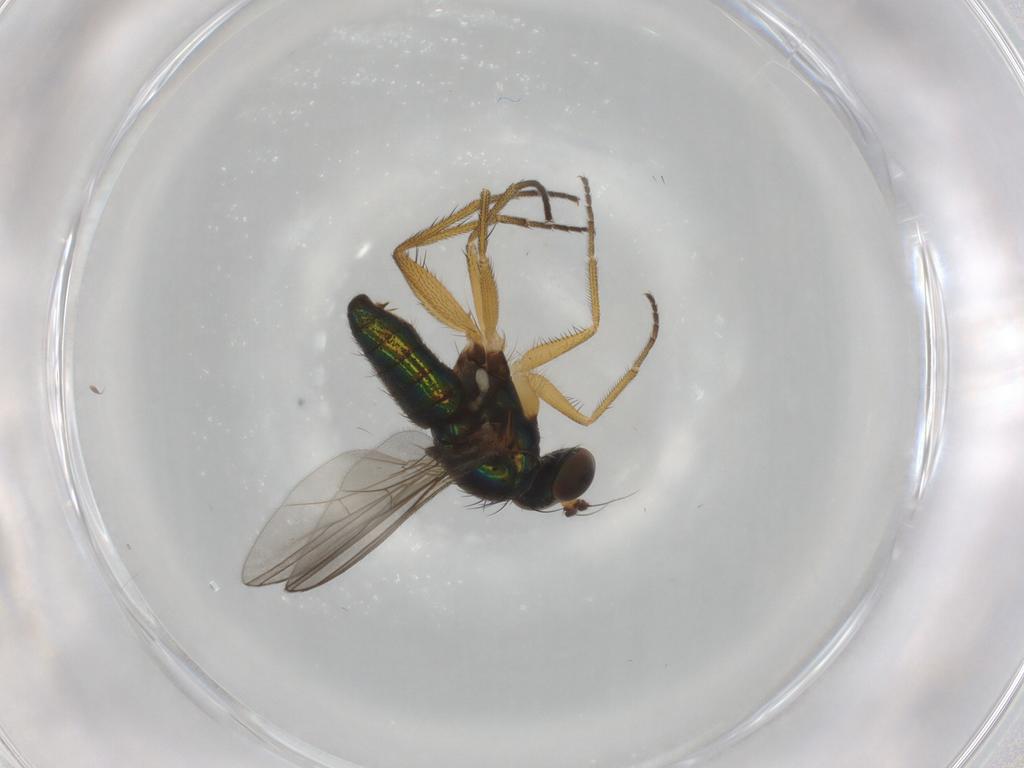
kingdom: Animalia
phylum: Arthropoda
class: Insecta
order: Diptera
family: Dolichopodidae
